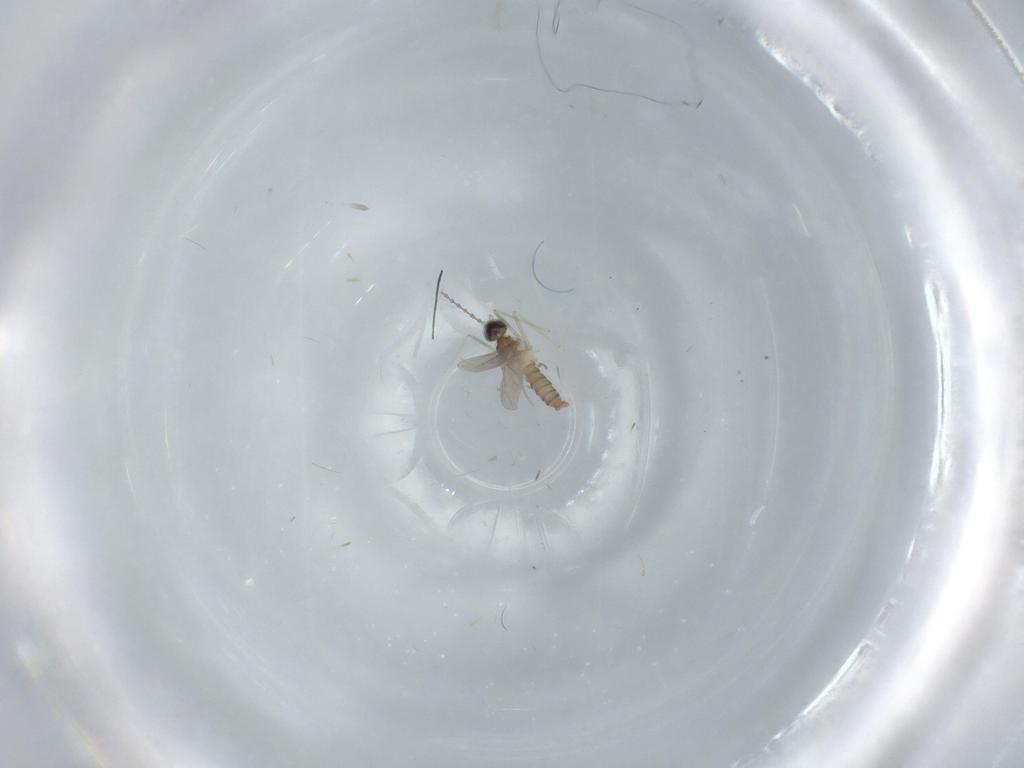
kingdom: Animalia
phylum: Arthropoda
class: Insecta
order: Diptera
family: Cecidomyiidae
